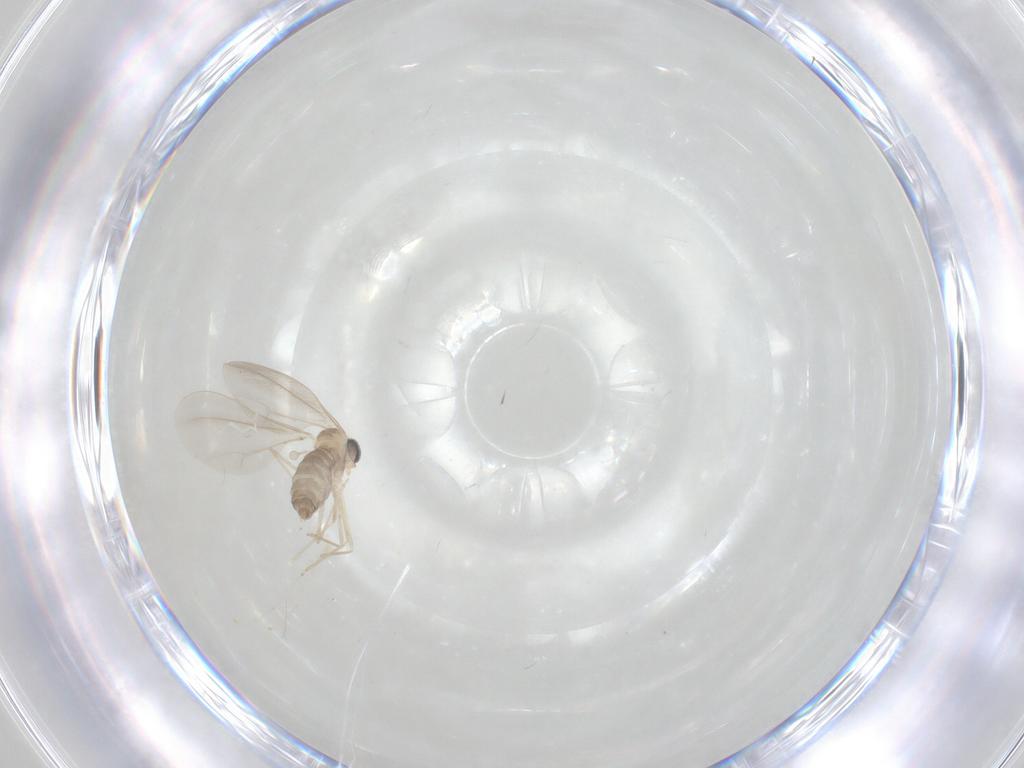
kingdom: Animalia
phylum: Arthropoda
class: Insecta
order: Diptera
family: Cecidomyiidae
